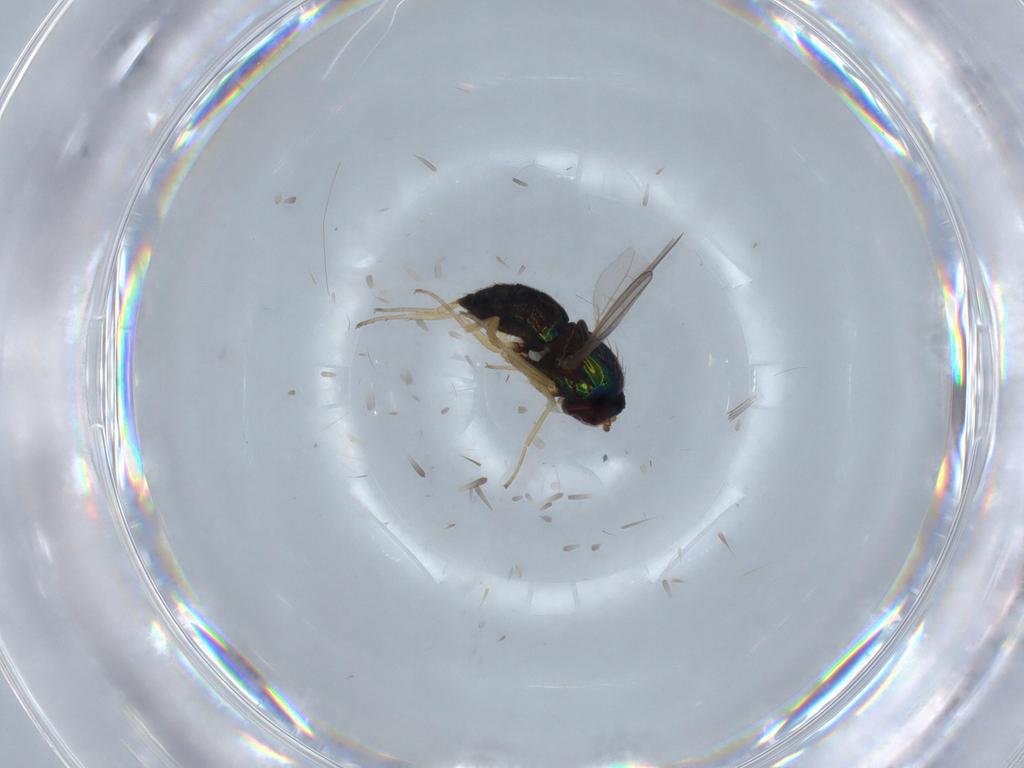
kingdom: Animalia
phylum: Arthropoda
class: Insecta
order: Diptera
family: Dolichopodidae
